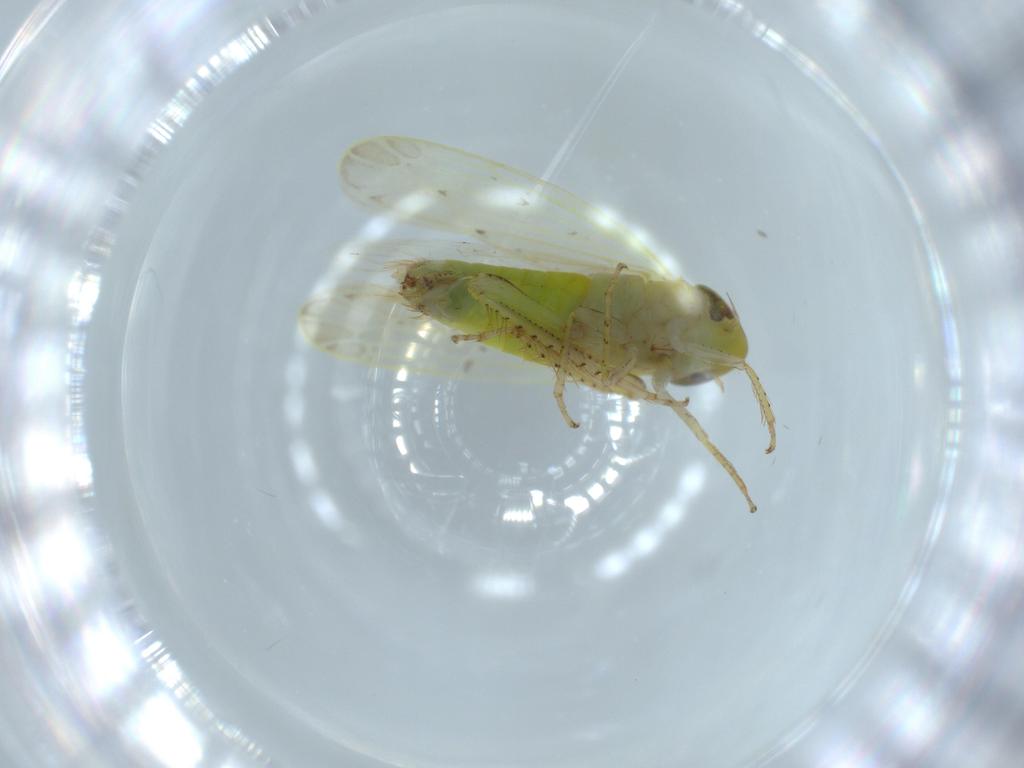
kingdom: Animalia
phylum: Arthropoda
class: Insecta
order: Hemiptera
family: Cicadellidae
